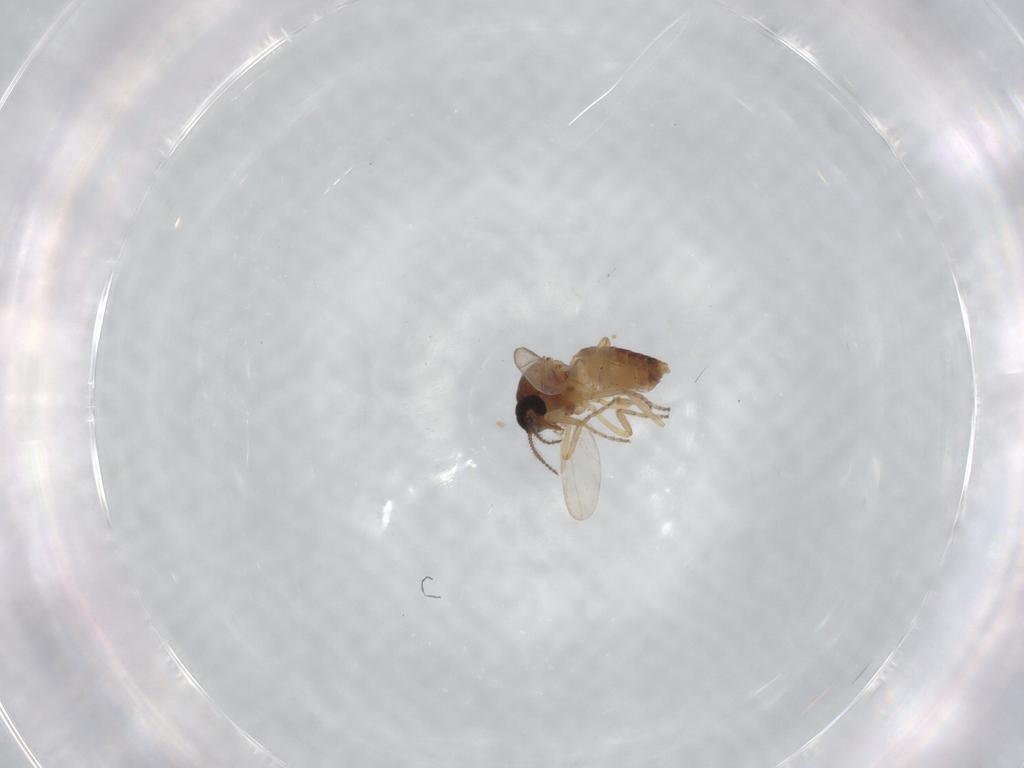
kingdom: Animalia
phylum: Arthropoda
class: Insecta
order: Diptera
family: Ceratopogonidae
